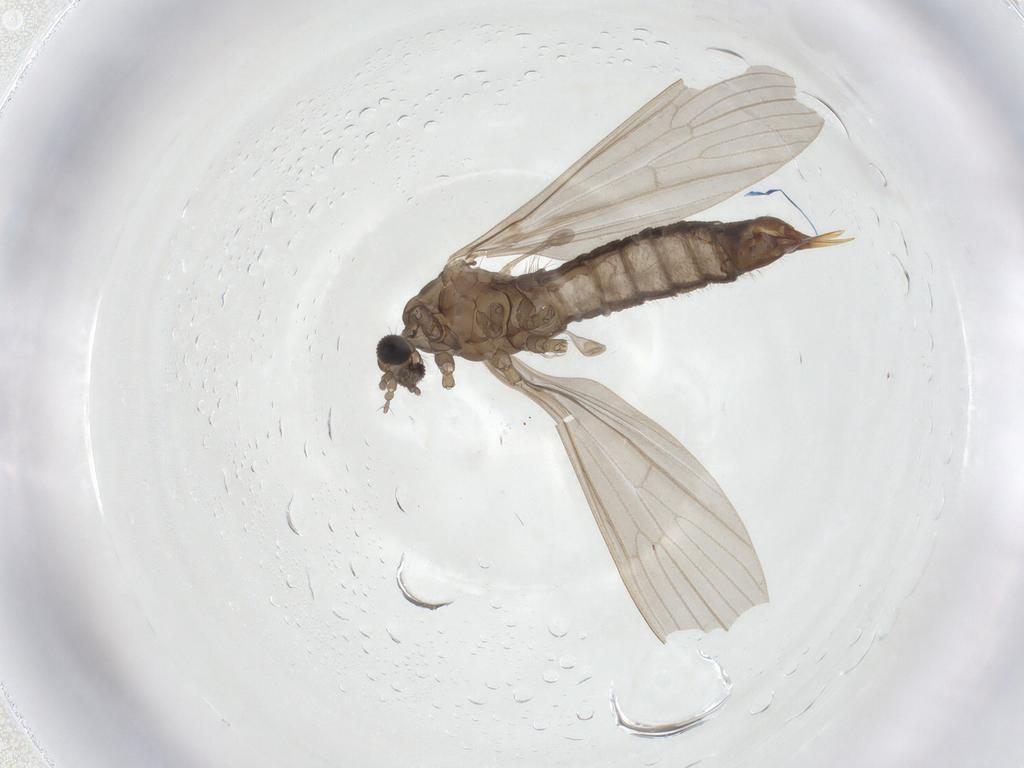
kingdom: Animalia
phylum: Arthropoda
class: Insecta
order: Diptera
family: Limoniidae
